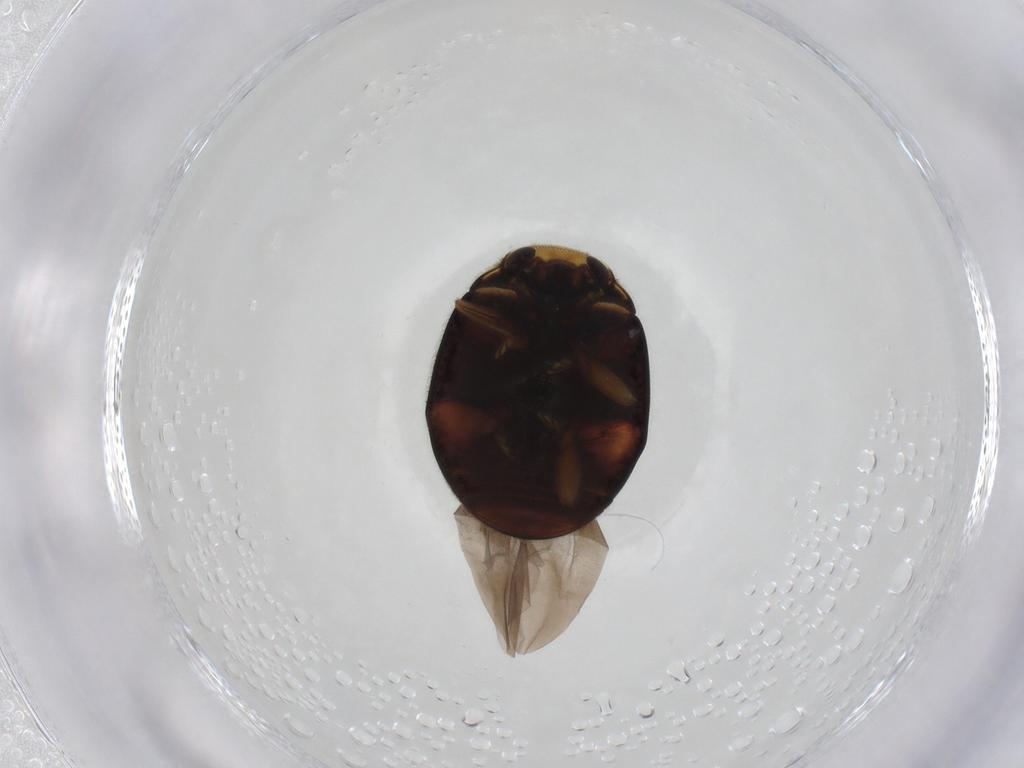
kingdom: Animalia
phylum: Arthropoda
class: Insecta
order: Coleoptera
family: Coccinellidae
